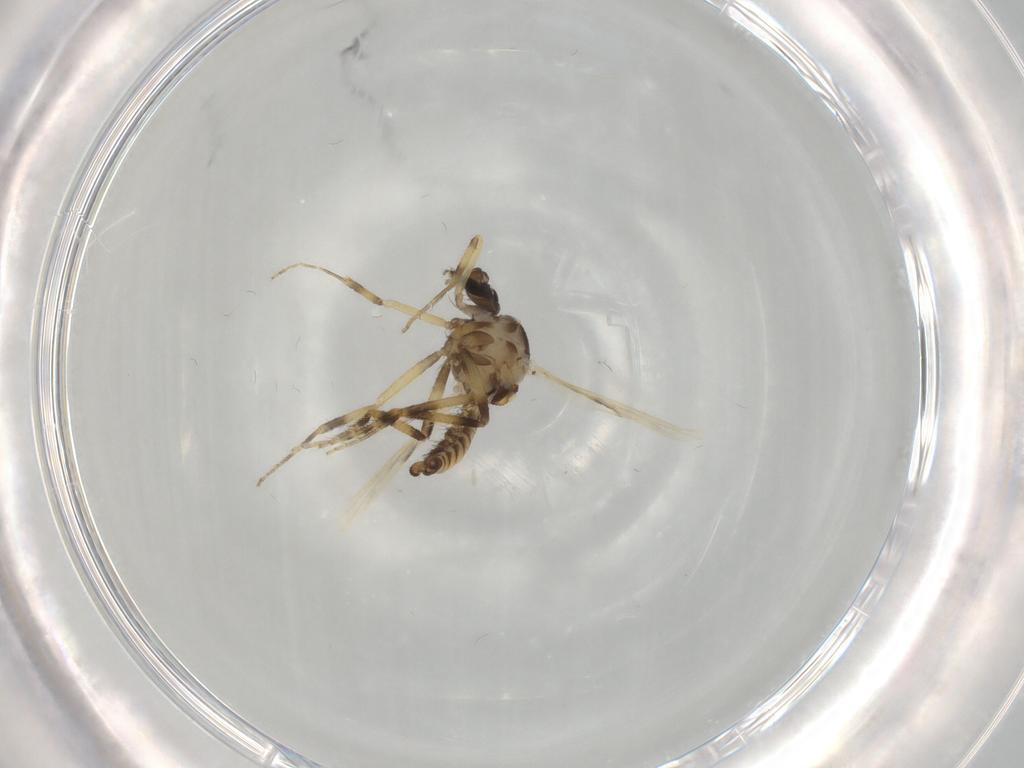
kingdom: Animalia
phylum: Arthropoda
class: Insecta
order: Diptera
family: Ceratopogonidae
